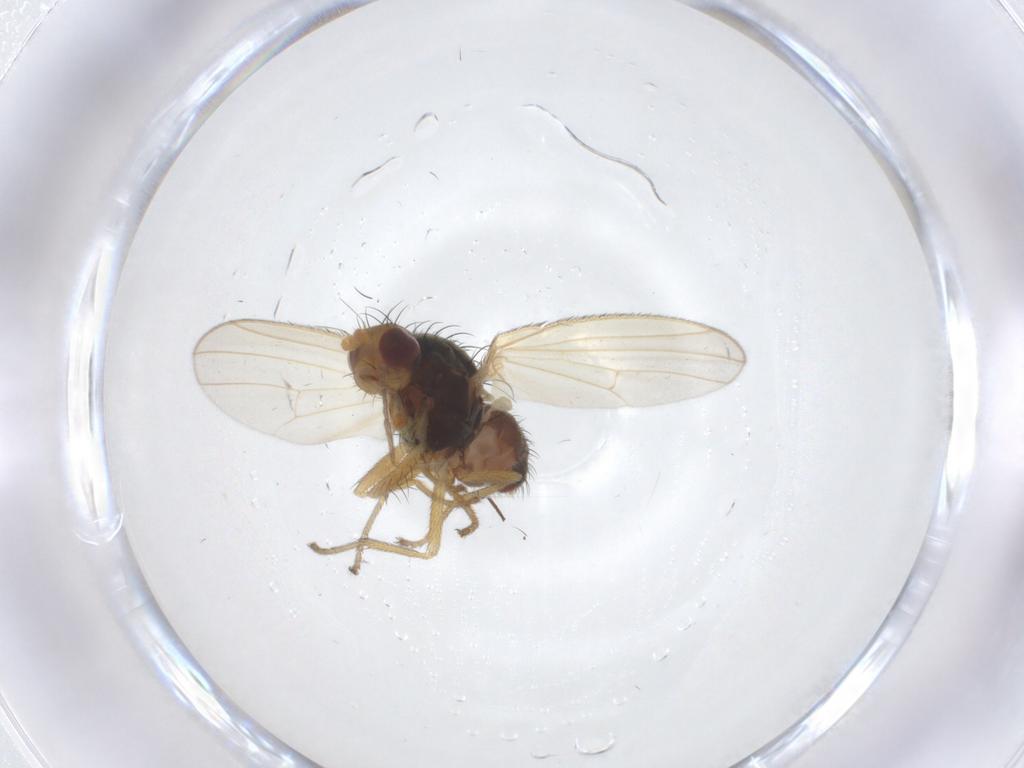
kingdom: Animalia
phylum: Arthropoda
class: Insecta
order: Diptera
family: Heleomyzidae
